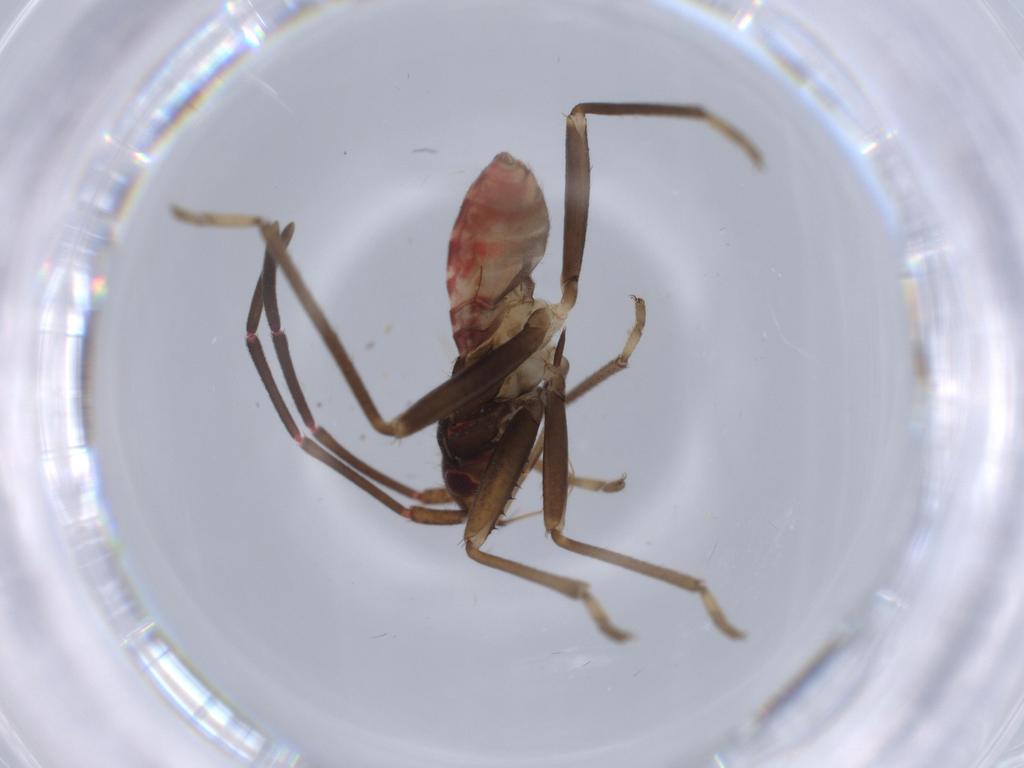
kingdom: Animalia
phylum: Arthropoda
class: Insecta
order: Hemiptera
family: Rhyparochromidae
